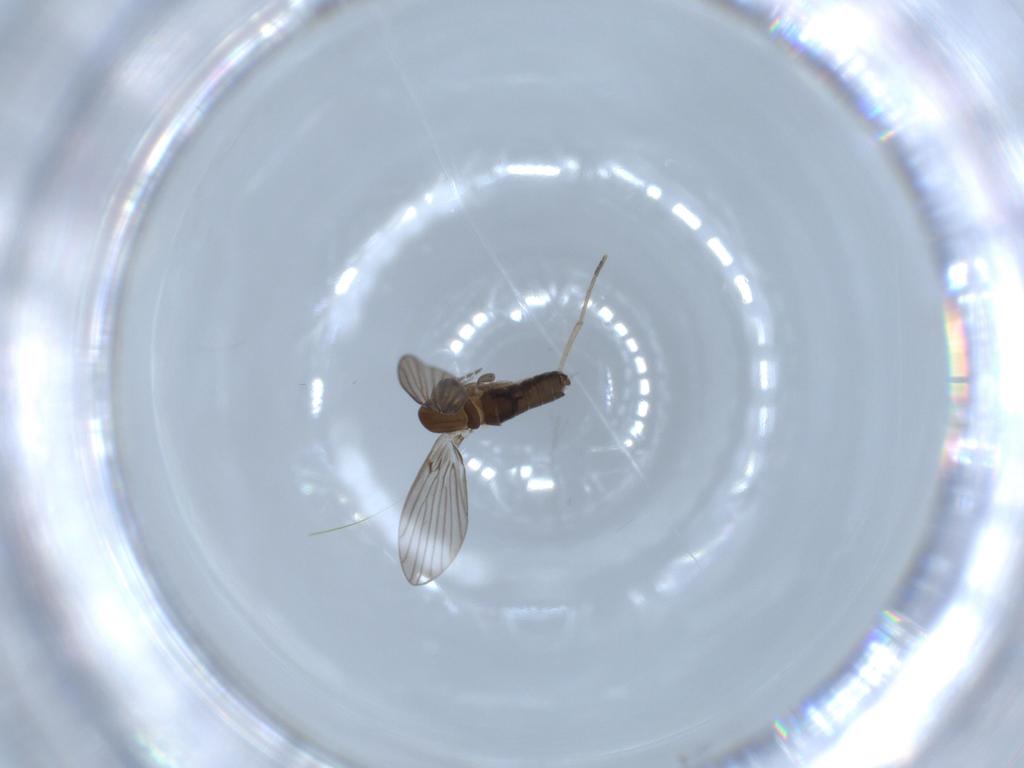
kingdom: Animalia
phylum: Arthropoda
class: Insecta
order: Diptera
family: Psychodidae
